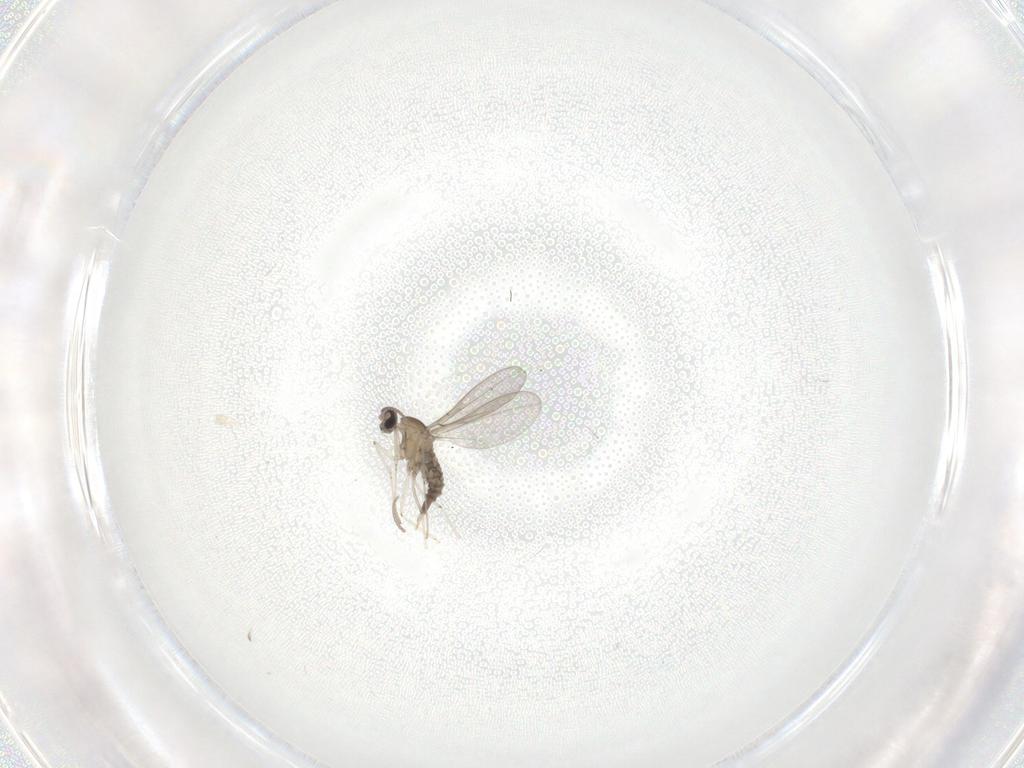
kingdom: Animalia
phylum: Arthropoda
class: Insecta
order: Diptera
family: Cecidomyiidae
